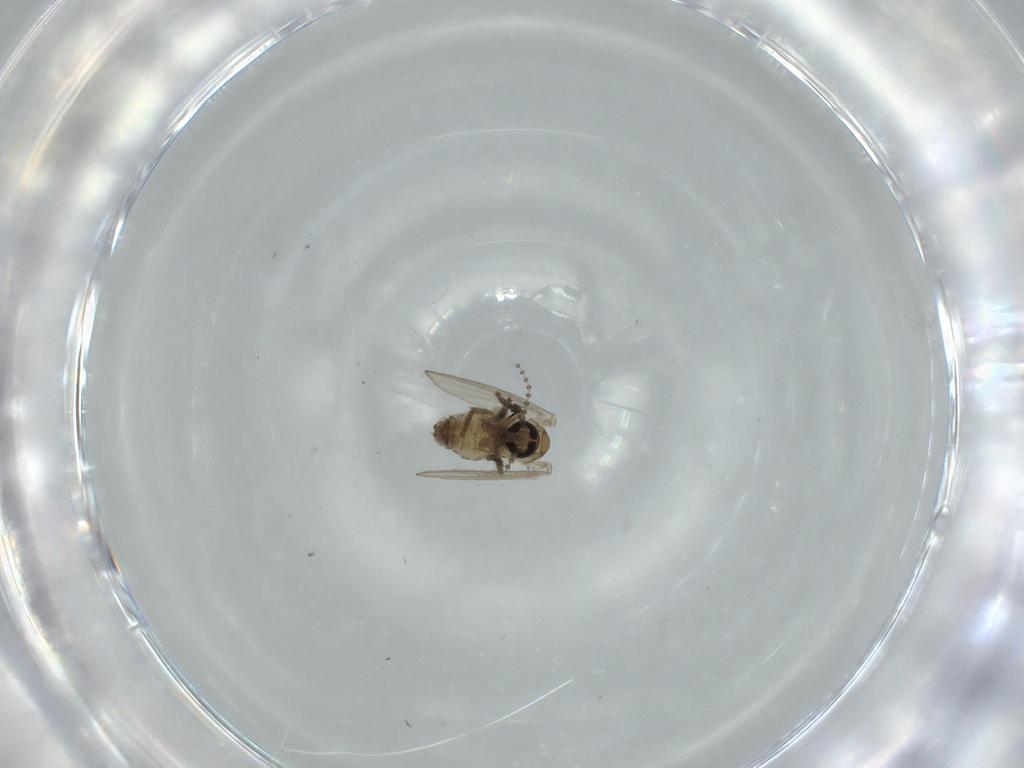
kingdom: Animalia
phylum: Arthropoda
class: Insecta
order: Diptera
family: Psychodidae
